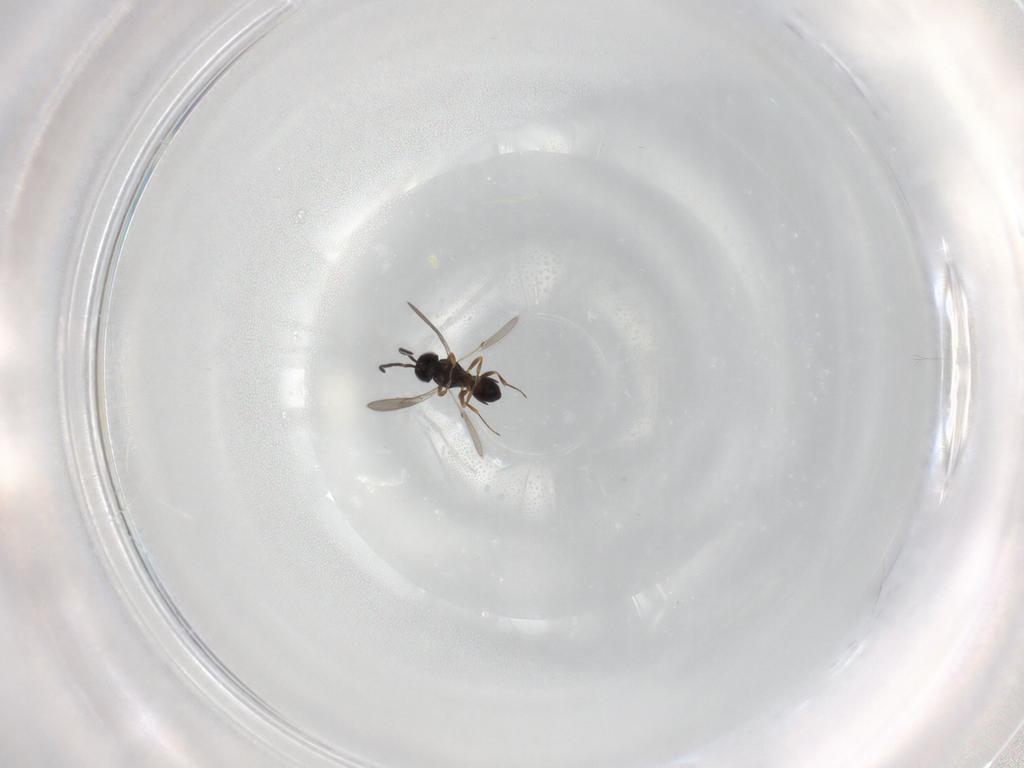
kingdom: Animalia
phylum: Arthropoda
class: Insecta
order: Hymenoptera
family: Scelionidae
